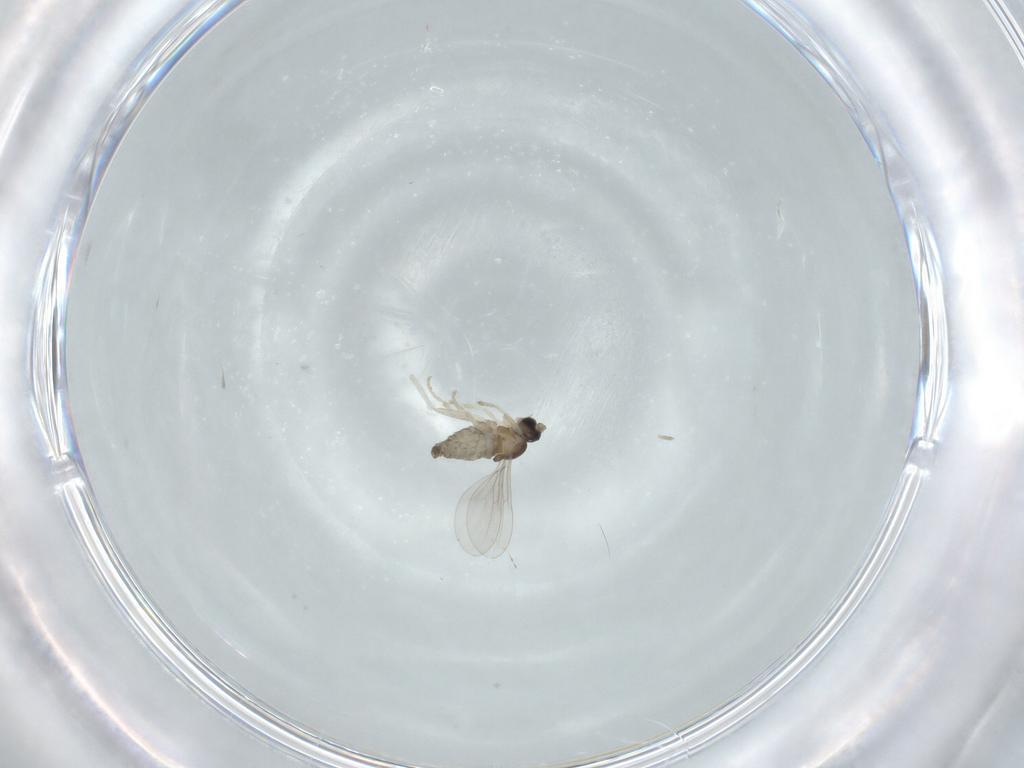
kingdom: Animalia
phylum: Arthropoda
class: Insecta
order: Diptera
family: Cecidomyiidae
